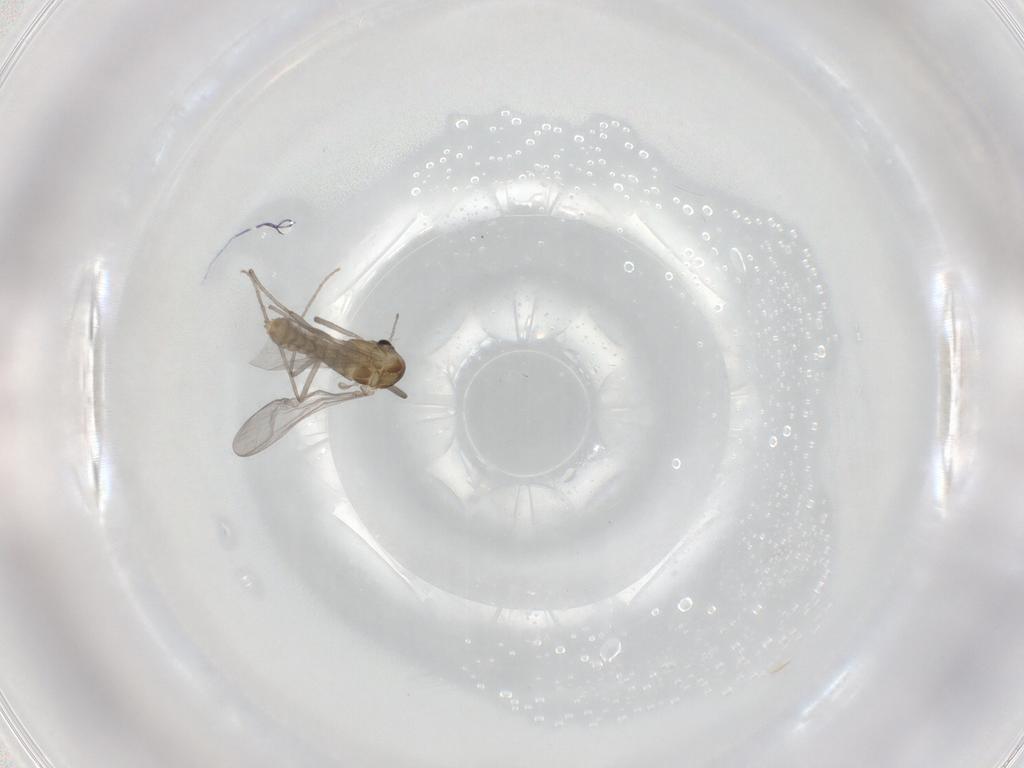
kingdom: Animalia
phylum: Arthropoda
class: Insecta
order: Diptera
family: Chironomidae
